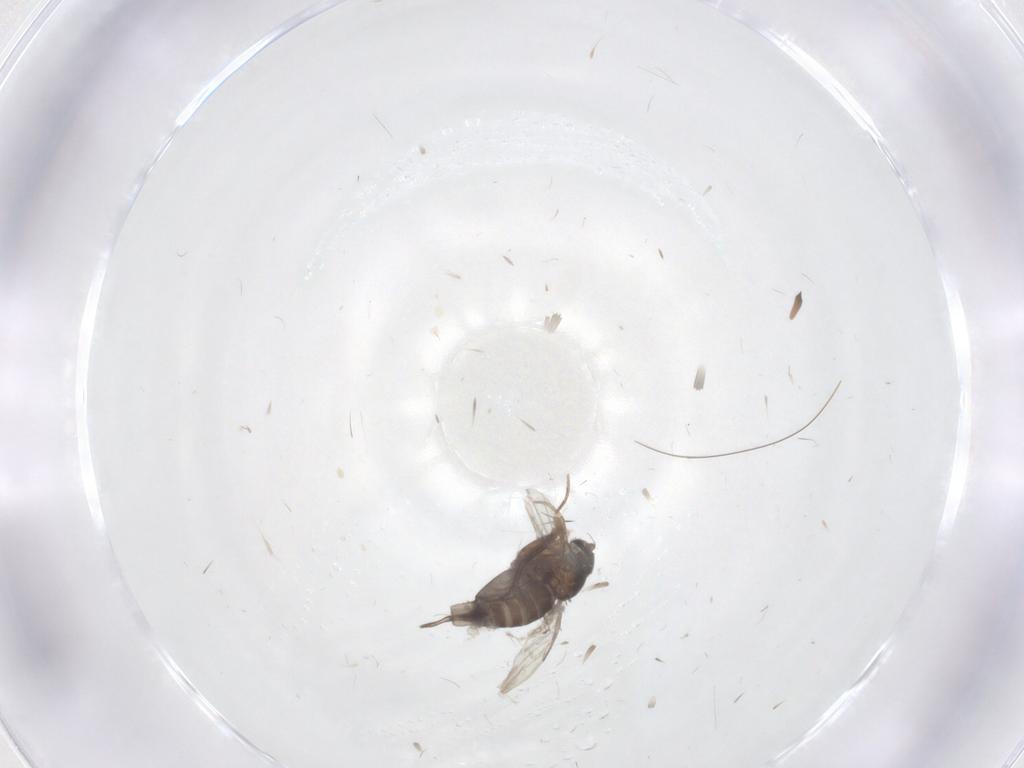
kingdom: Animalia
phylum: Arthropoda
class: Insecta
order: Diptera
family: Phoridae
